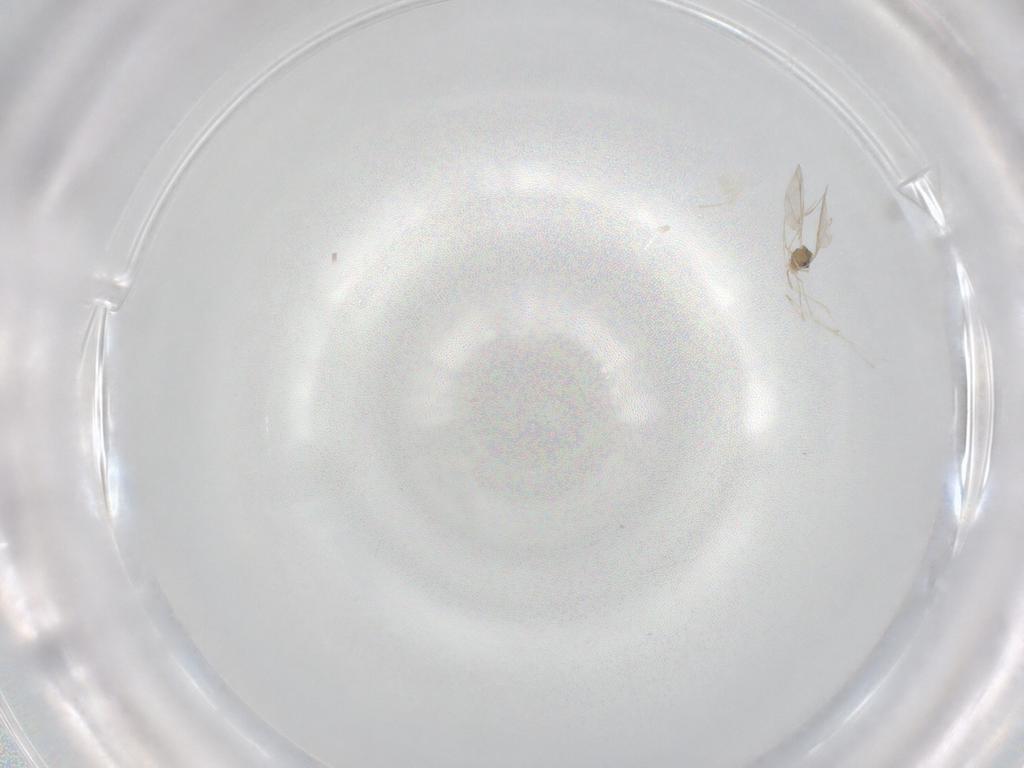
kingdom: Animalia
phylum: Arthropoda
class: Insecta
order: Diptera
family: Cecidomyiidae
